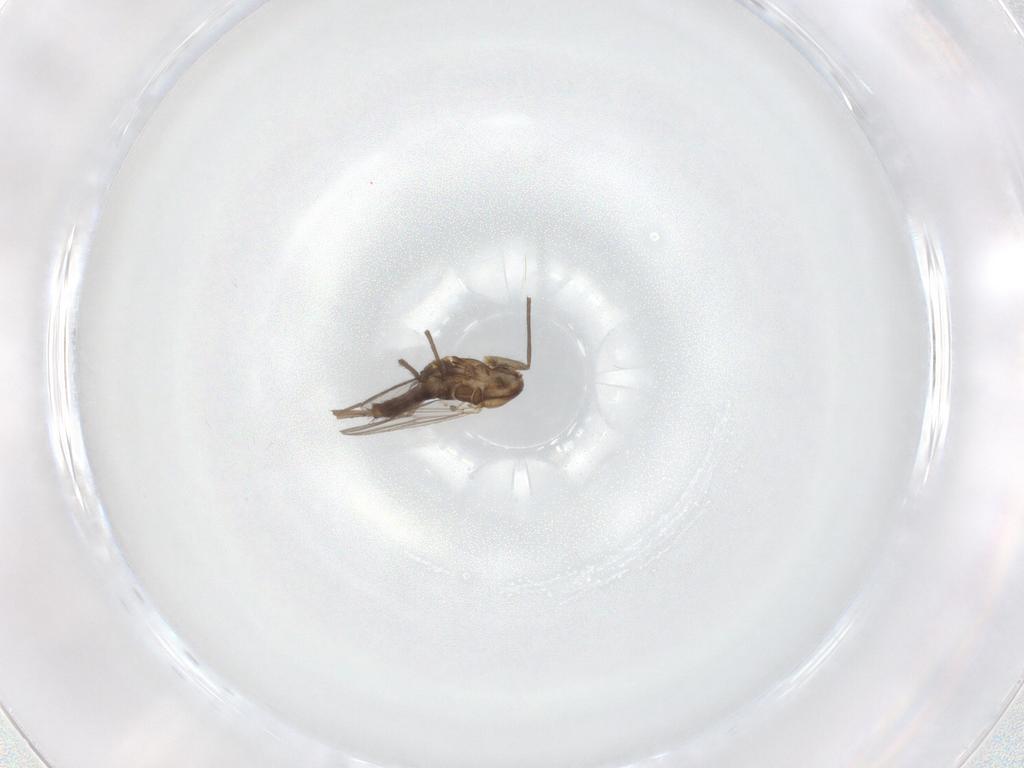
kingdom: Animalia
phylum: Arthropoda
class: Insecta
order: Diptera
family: Chironomidae
